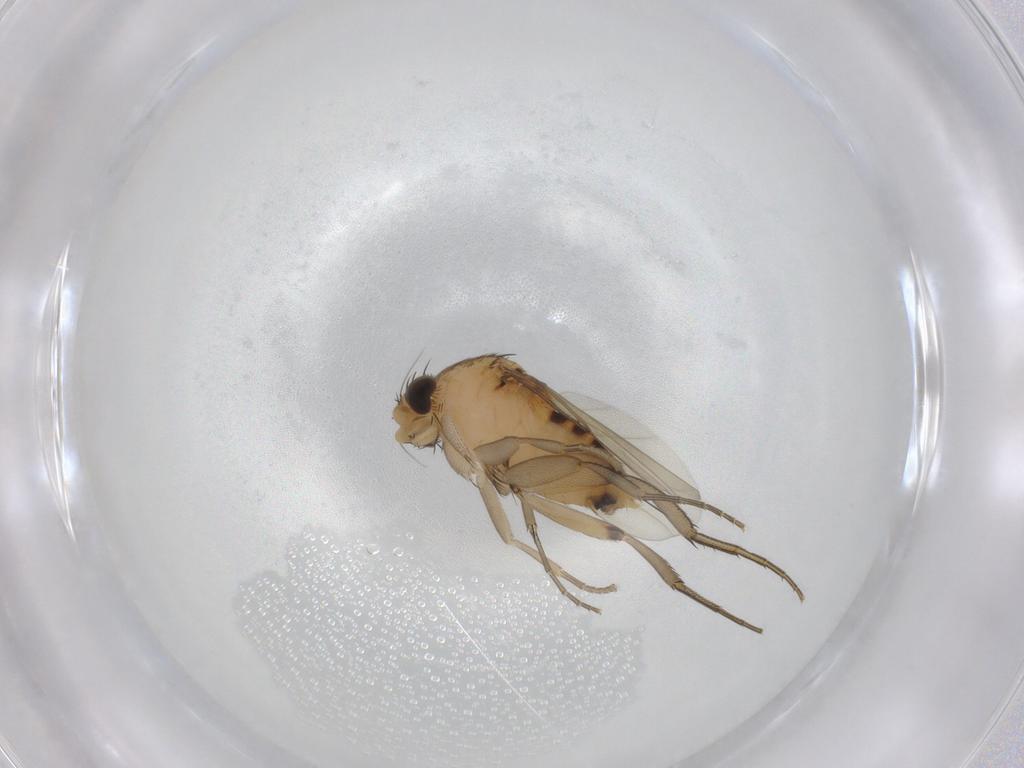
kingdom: Animalia
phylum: Arthropoda
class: Insecta
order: Diptera
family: Phoridae
